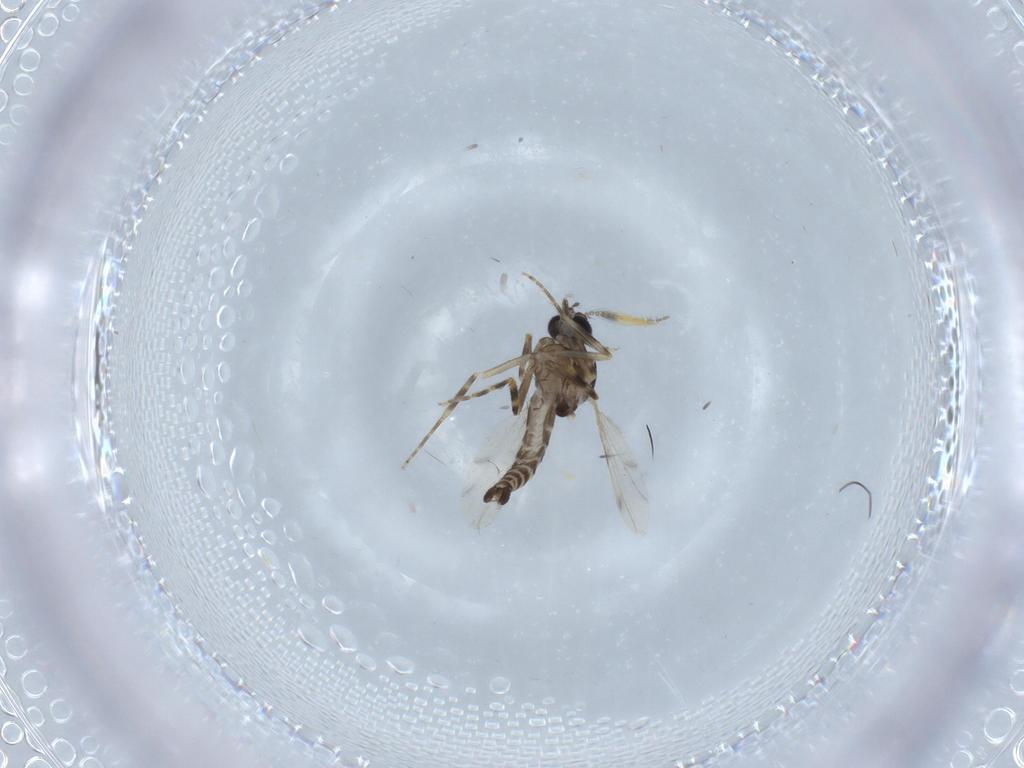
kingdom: Animalia
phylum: Arthropoda
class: Insecta
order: Diptera
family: Ceratopogonidae
